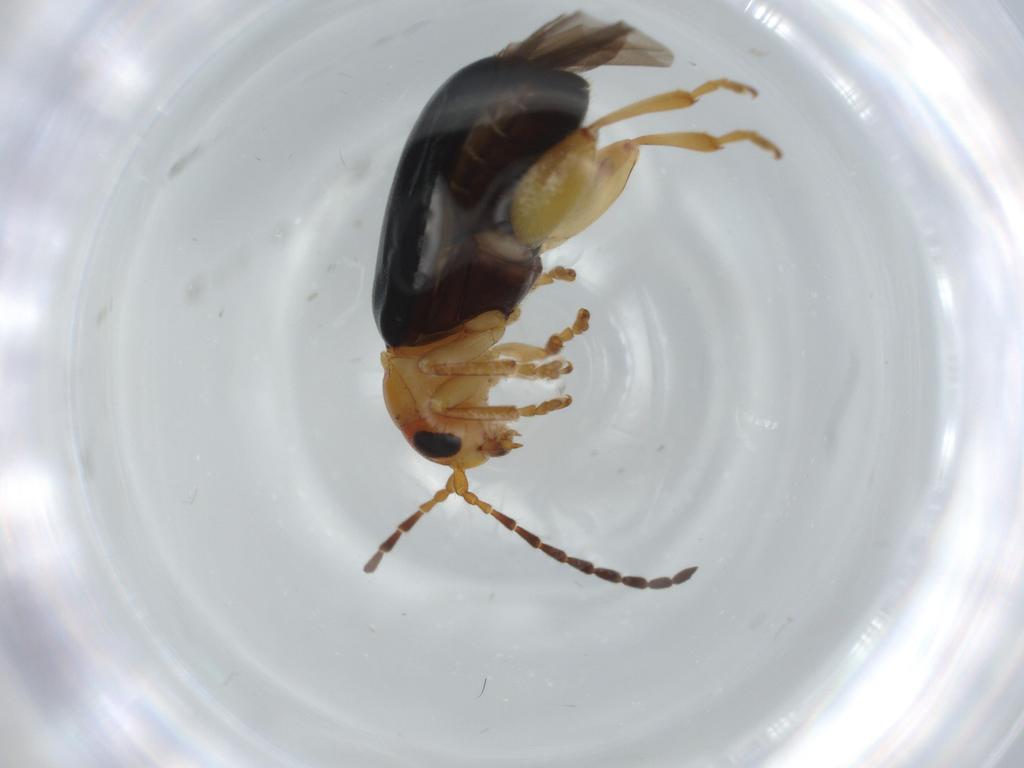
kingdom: Animalia
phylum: Arthropoda
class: Insecta
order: Coleoptera
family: Chrysomelidae
